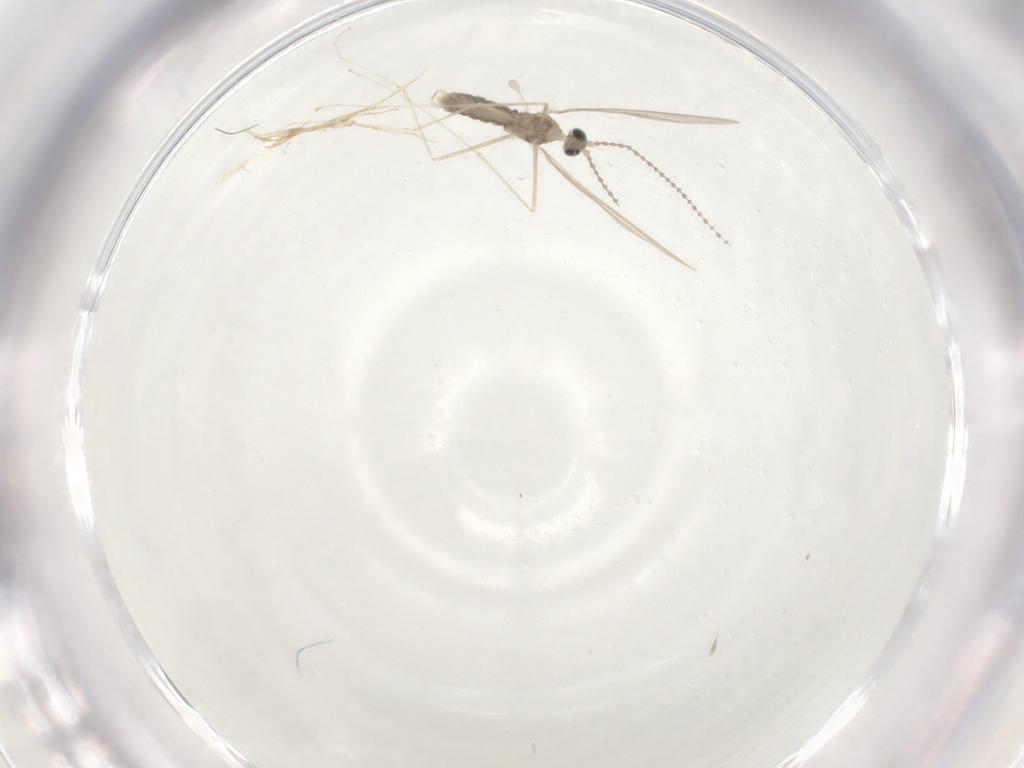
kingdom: Animalia
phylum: Arthropoda
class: Insecta
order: Diptera
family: Cecidomyiidae
